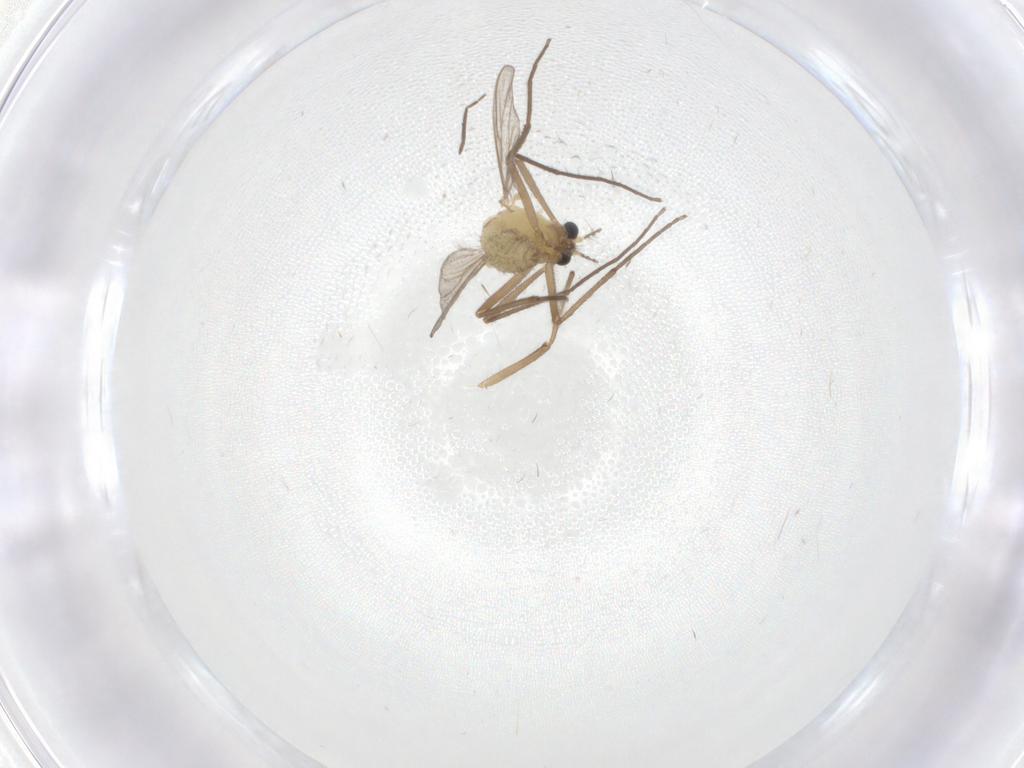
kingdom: Animalia
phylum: Arthropoda
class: Insecta
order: Diptera
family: Chironomidae
